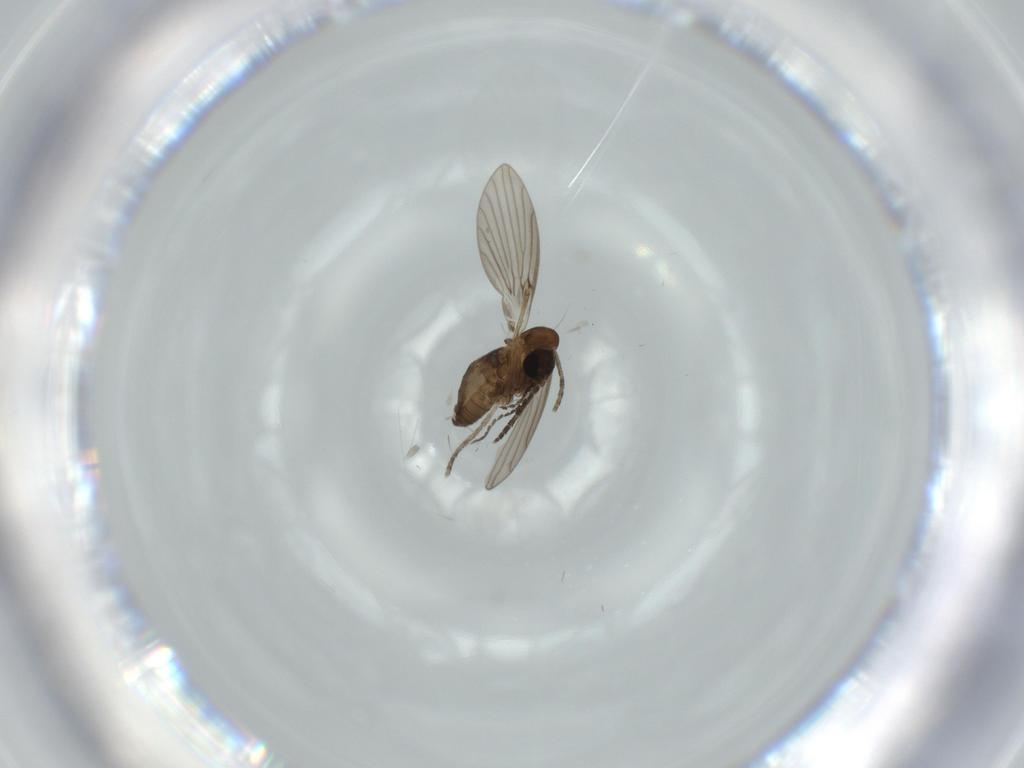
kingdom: Animalia
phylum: Arthropoda
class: Insecta
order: Diptera
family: Psychodidae
